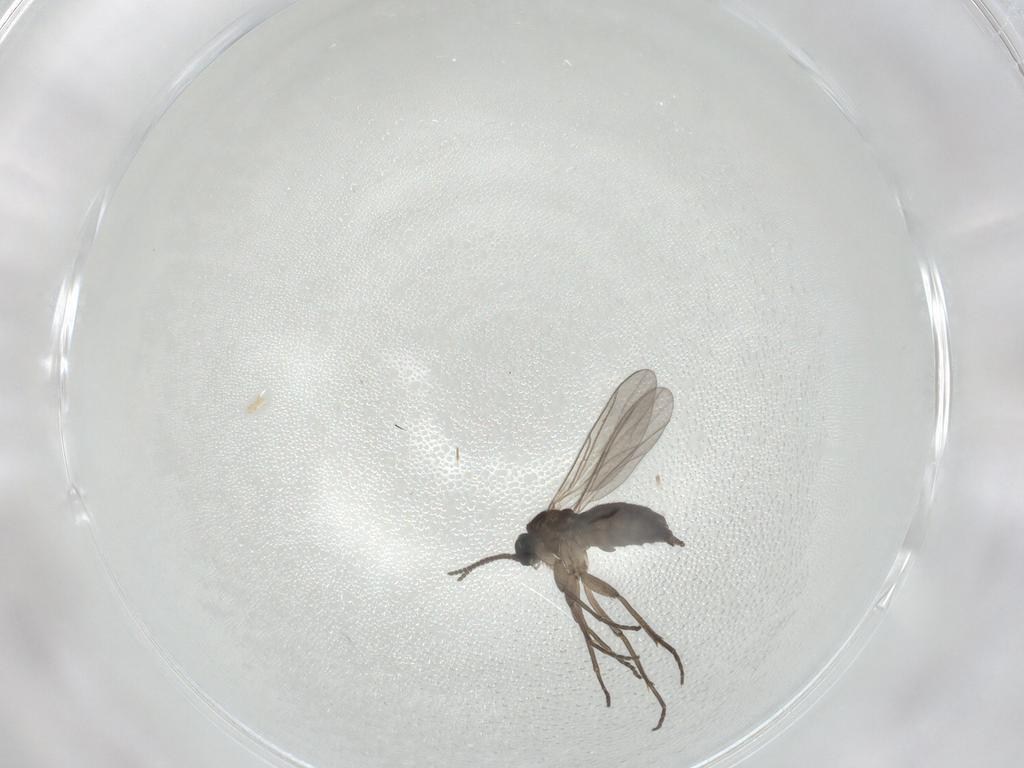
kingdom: Animalia
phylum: Arthropoda
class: Insecta
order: Diptera
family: Sciaridae
